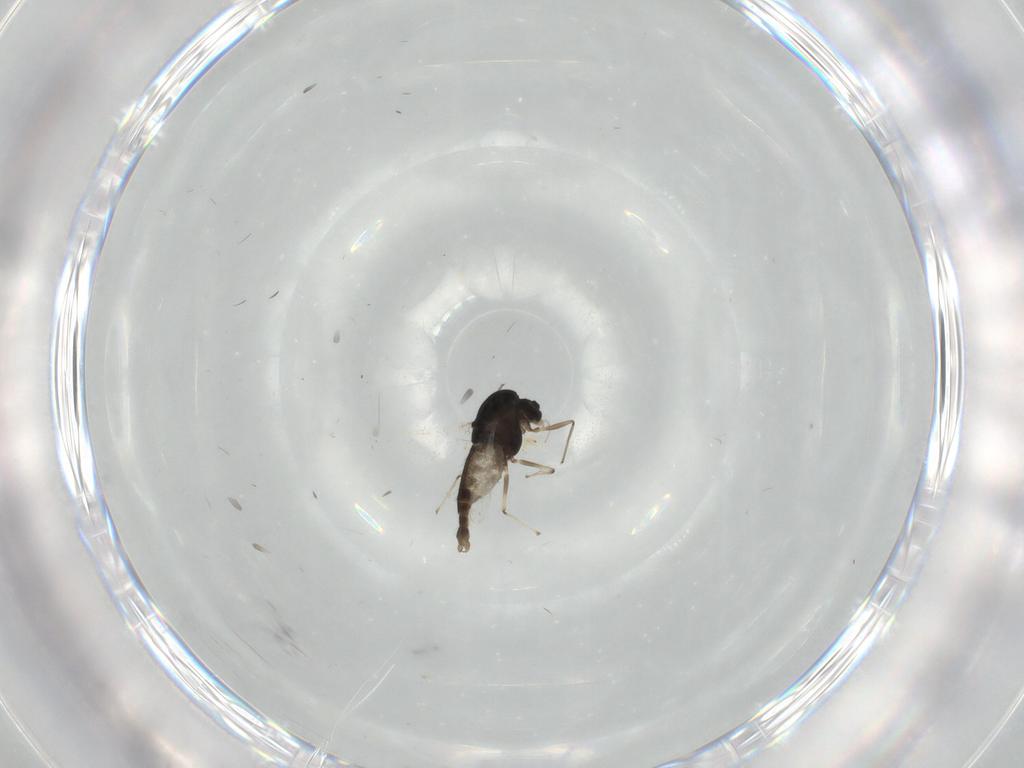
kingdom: Animalia
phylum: Arthropoda
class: Insecta
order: Diptera
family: Chironomidae
